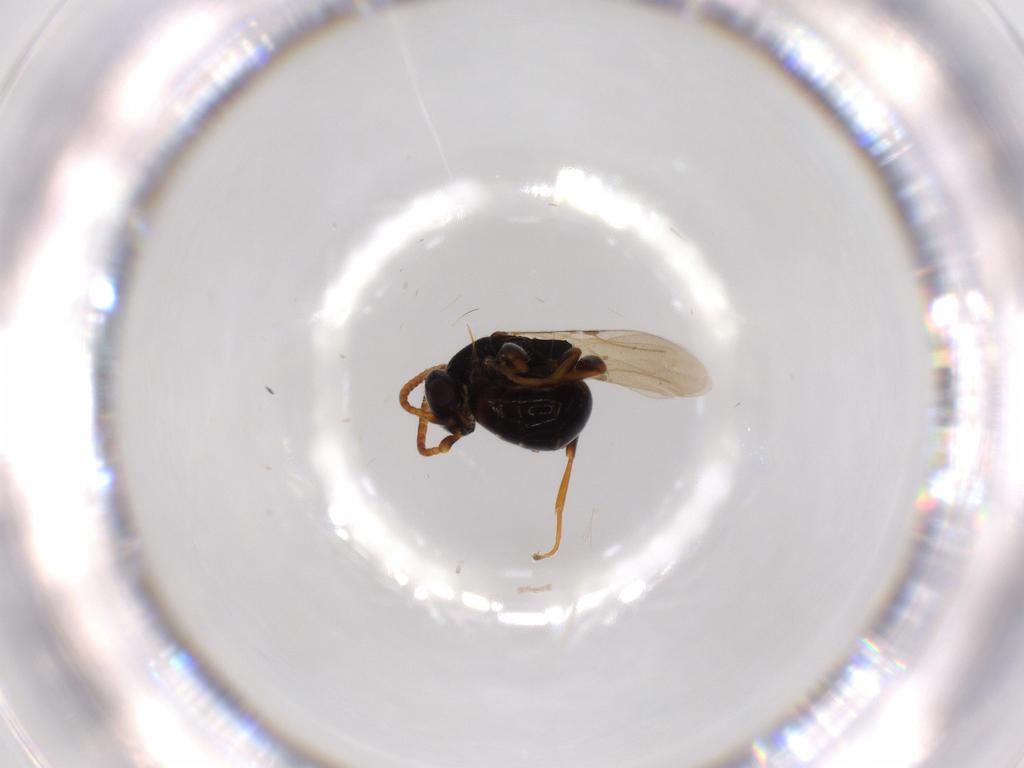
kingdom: Animalia
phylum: Arthropoda
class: Insecta
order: Hymenoptera
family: Bethylidae
